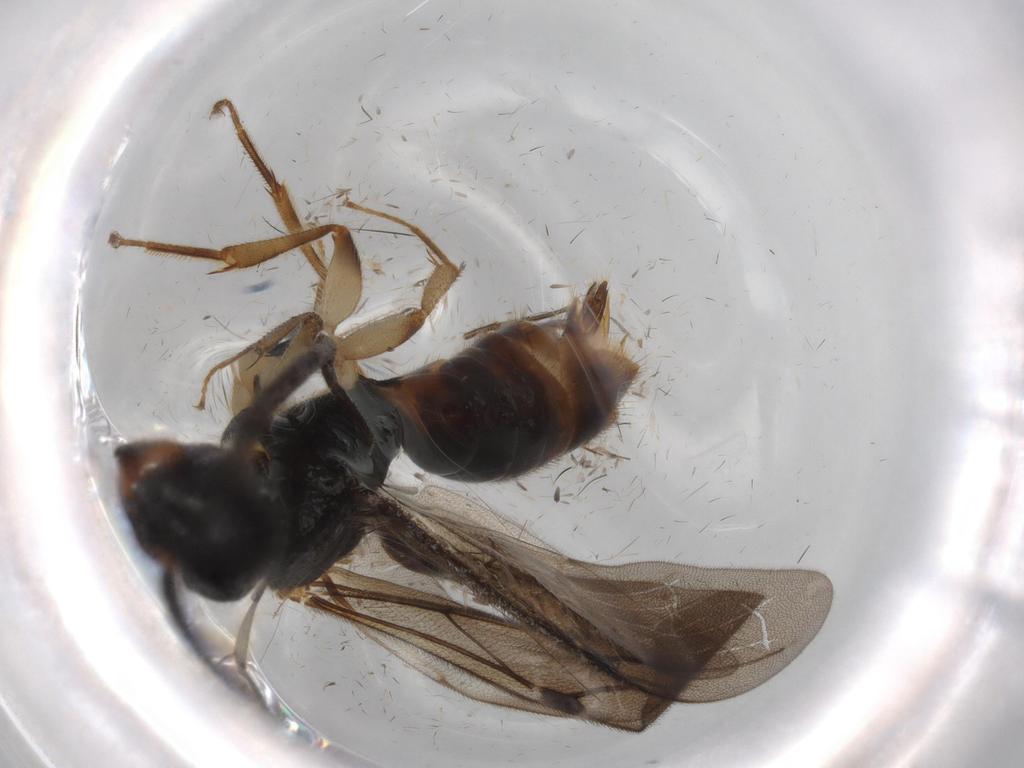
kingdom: Animalia
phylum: Arthropoda
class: Insecta
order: Hymenoptera
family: Bethylidae
